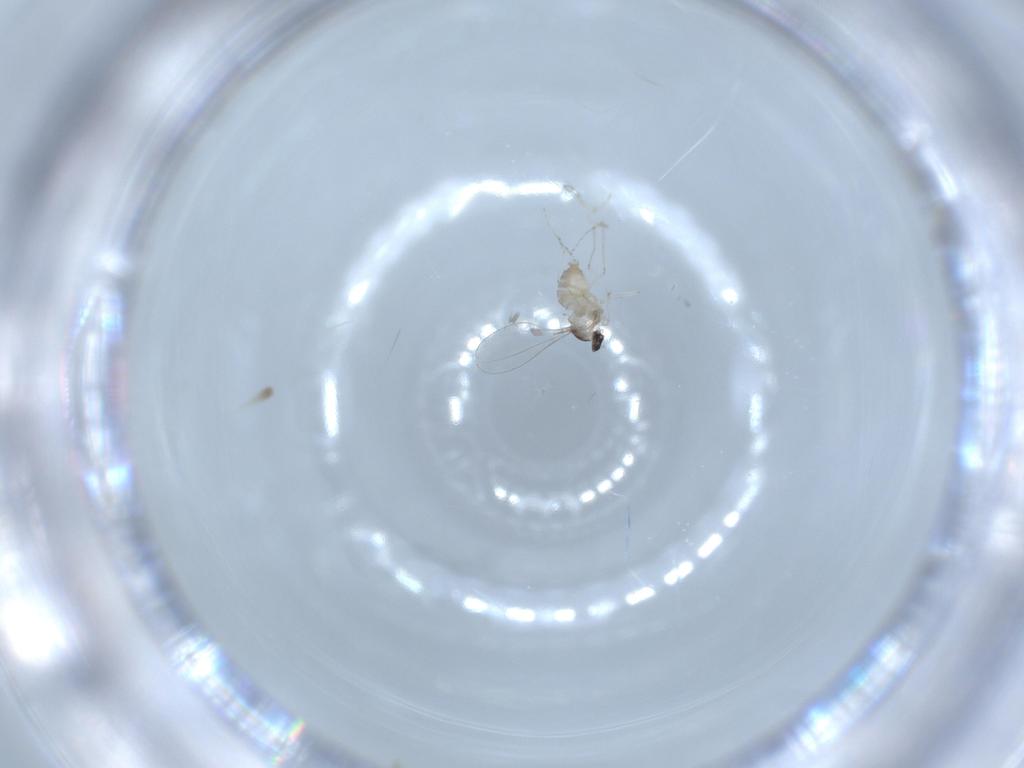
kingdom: Animalia
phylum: Arthropoda
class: Insecta
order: Diptera
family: Cecidomyiidae
